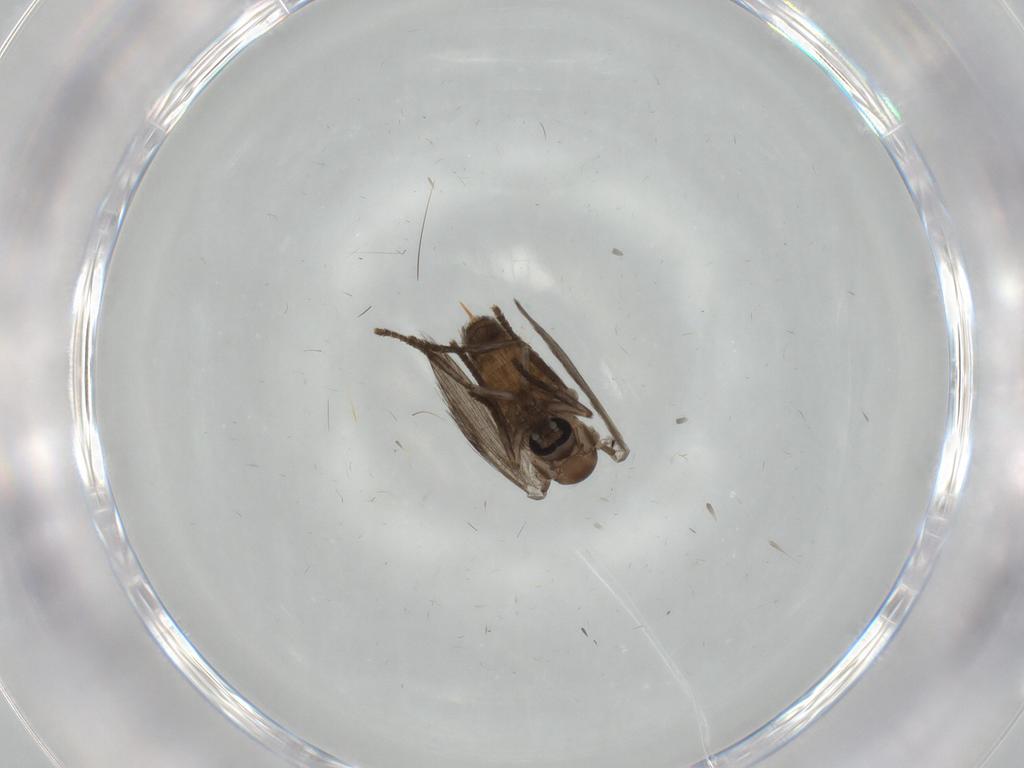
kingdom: Animalia
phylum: Arthropoda
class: Insecta
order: Diptera
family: Psychodidae
